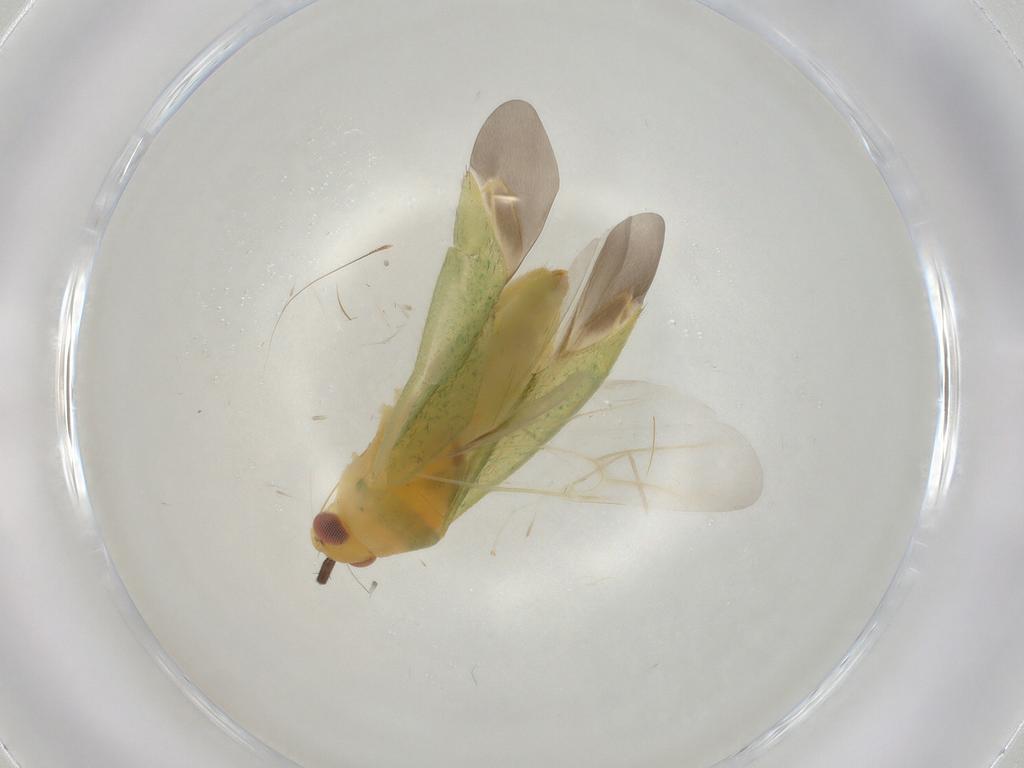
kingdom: Animalia
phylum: Arthropoda
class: Insecta
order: Hemiptera
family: Miridae
